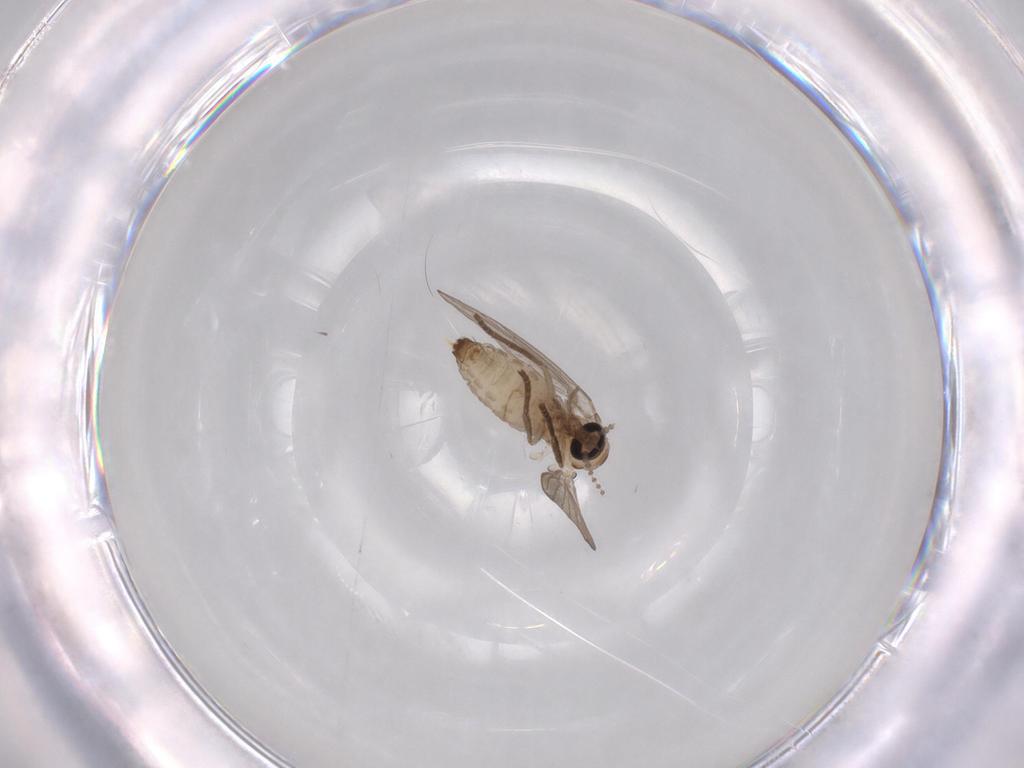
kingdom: Animalia
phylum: Arthropoda
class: Insecta
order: Diptera
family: Psychodidae
